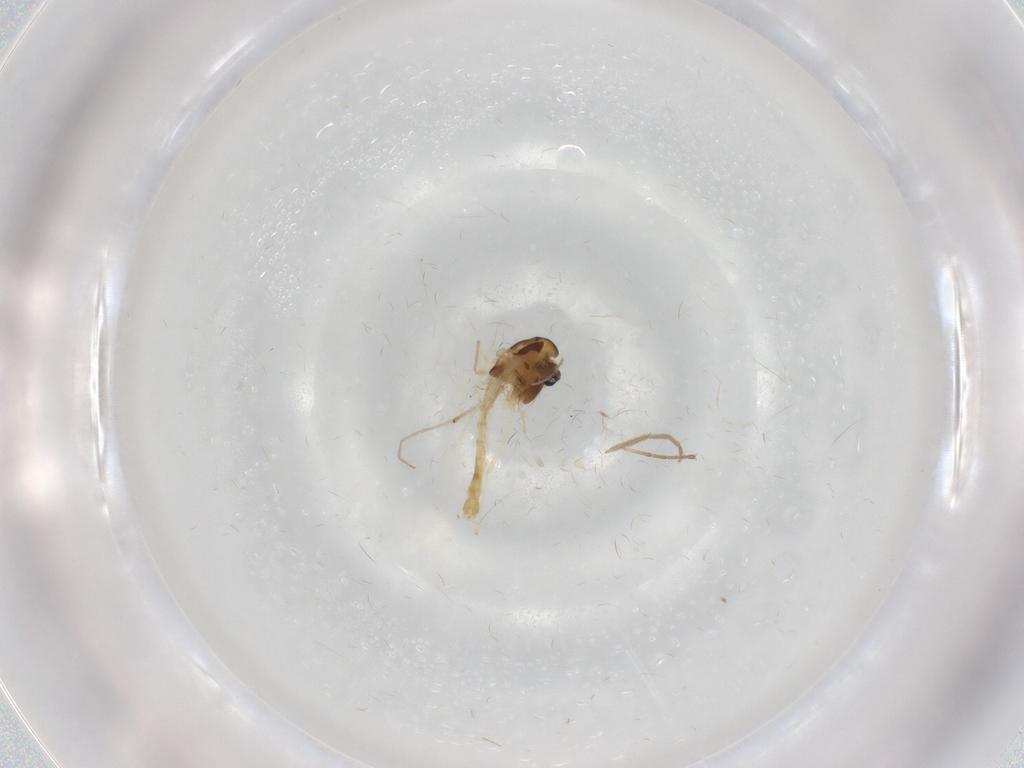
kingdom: Animalia
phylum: Arthropoda
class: Insecta
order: Diptera
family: Chironomidae
